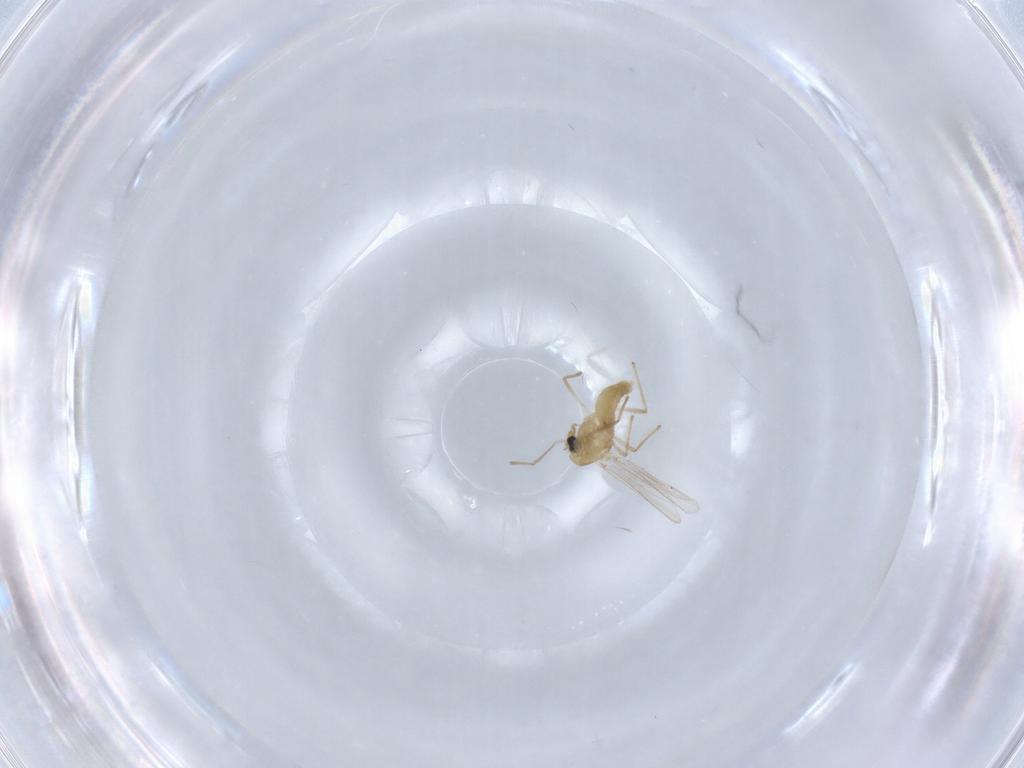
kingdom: Animalia
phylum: Arthropoda
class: Insecta
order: Diptera
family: Chironomidae
